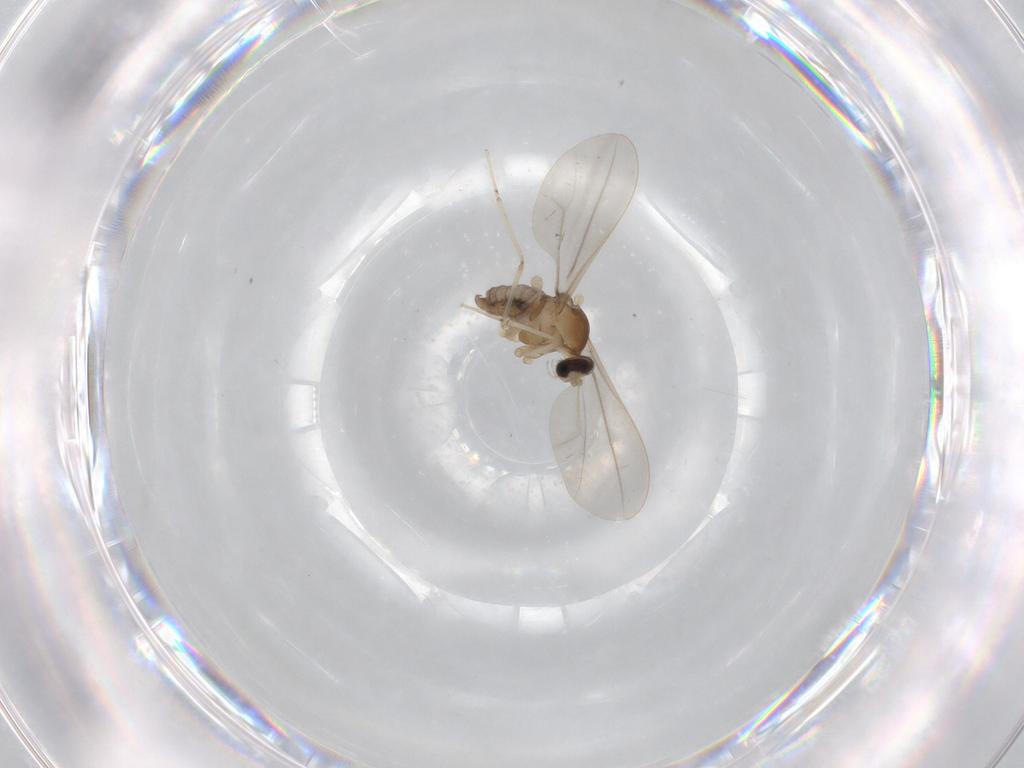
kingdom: Animalia
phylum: Arthropoda
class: Insecta
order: Diptera
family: Cecidomyiidae
